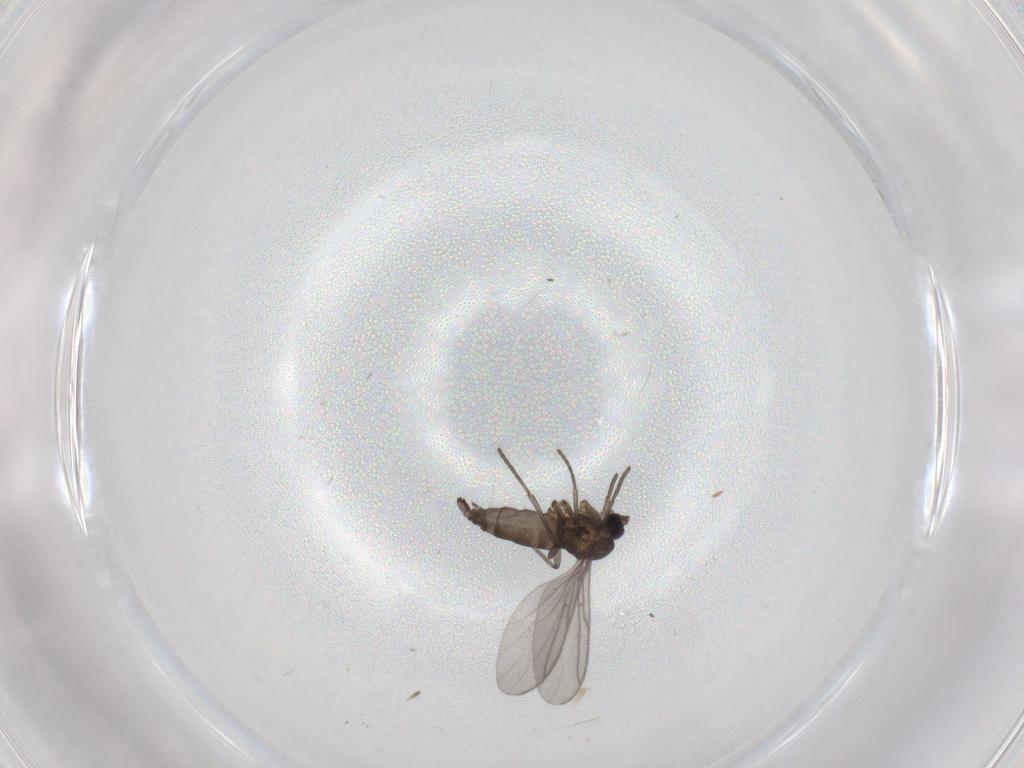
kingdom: Animalia
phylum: Arthropoda
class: Insecta
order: Diptera
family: Sciaridae
